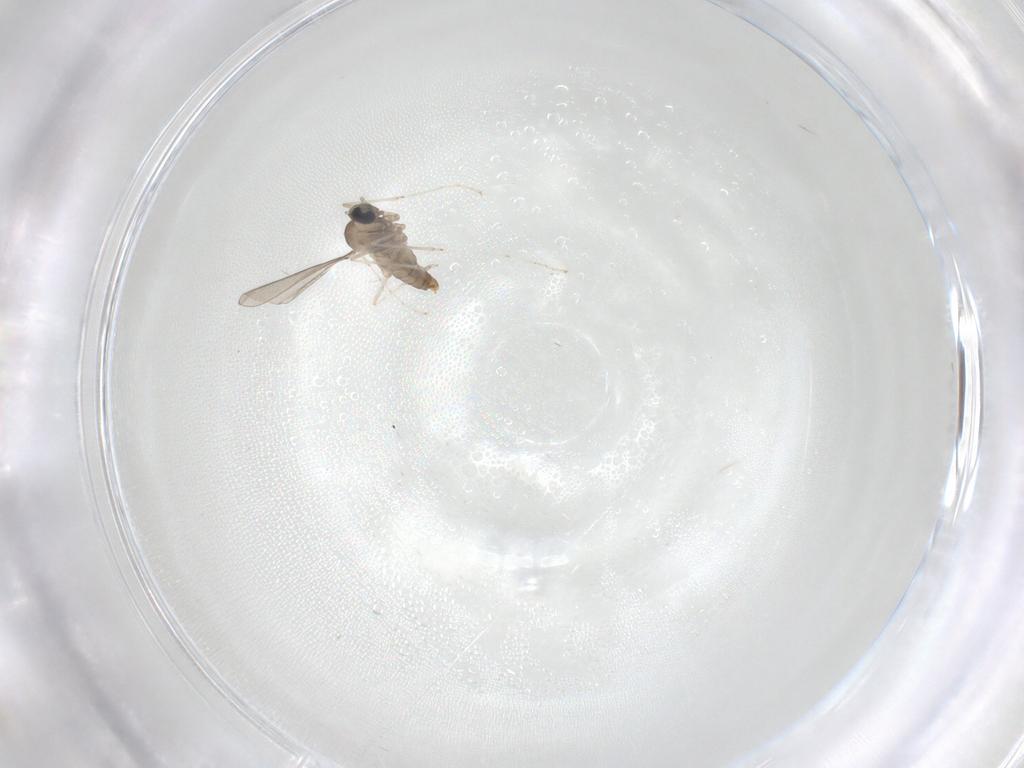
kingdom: Animalia
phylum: Arthropoda
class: Insecta
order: Diptera
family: Cecidomyiidae
